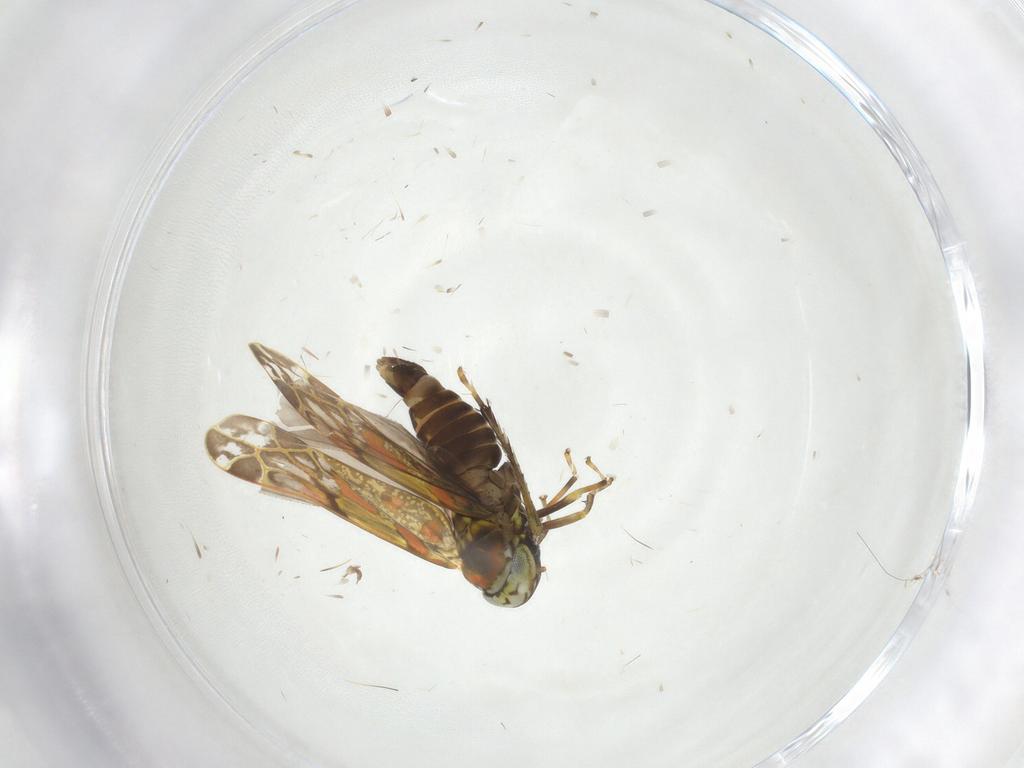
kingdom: Animalia
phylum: Arthropoda
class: Insecta
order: Hemiptera
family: Cicadellidae
